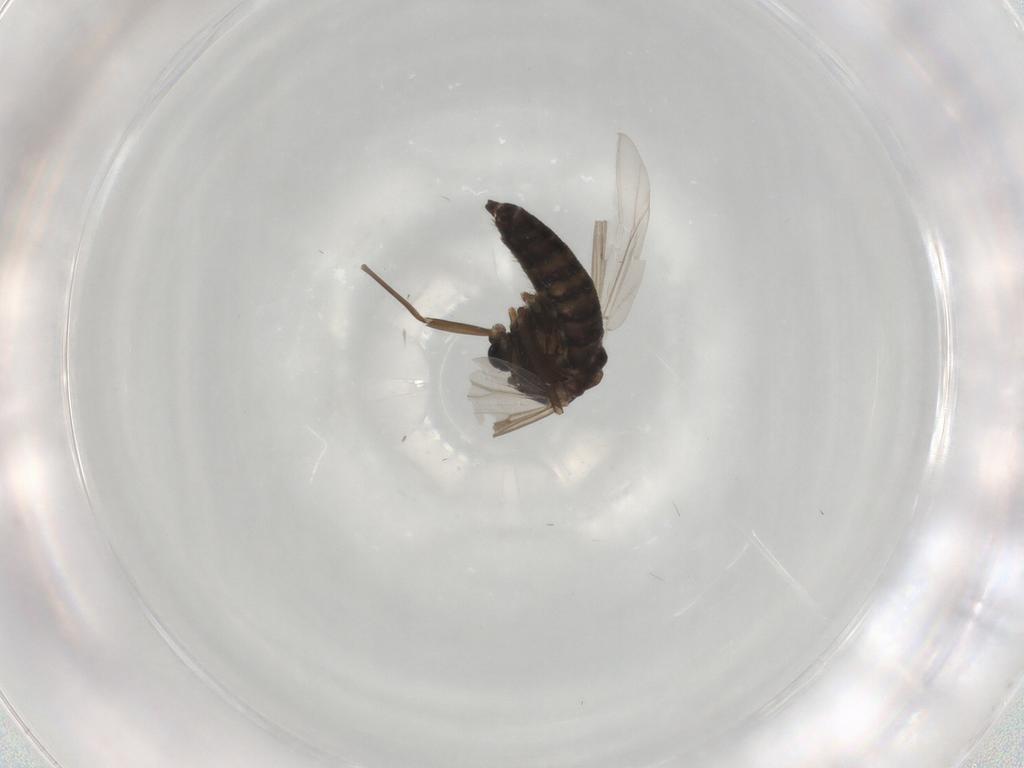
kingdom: Animalia
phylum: Arthropoda
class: Insecta
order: Diptera
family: Chironomidae
